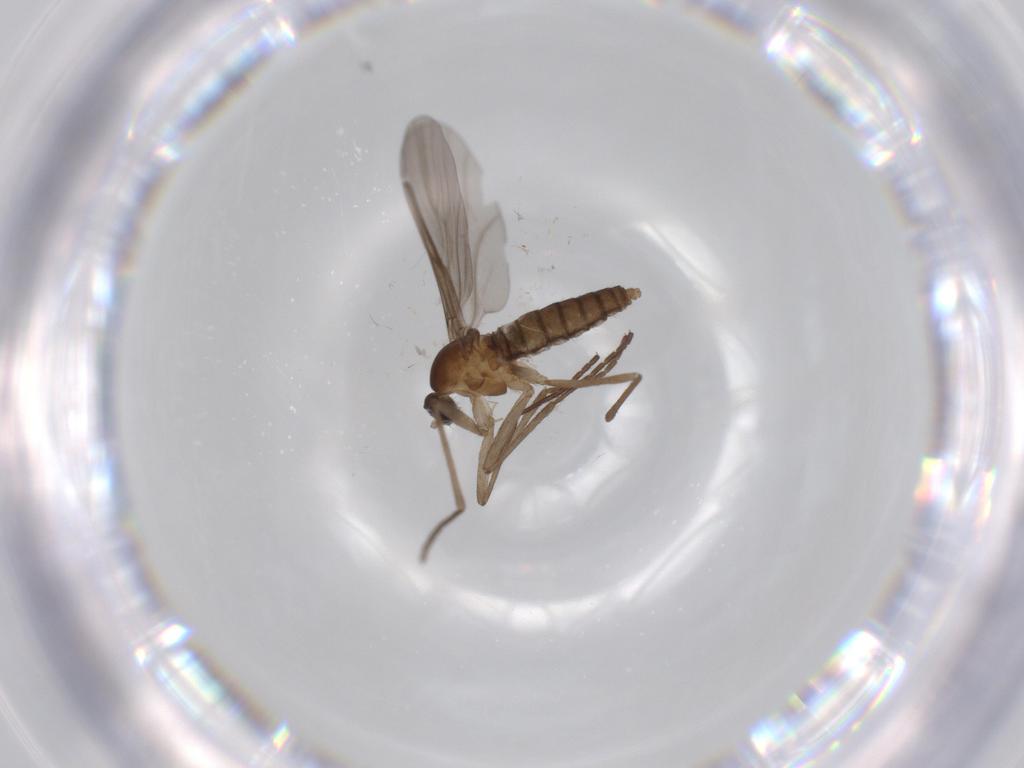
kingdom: Animalia
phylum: Arthropoda
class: Insecta
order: Diptera
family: Cecidomyiidae
